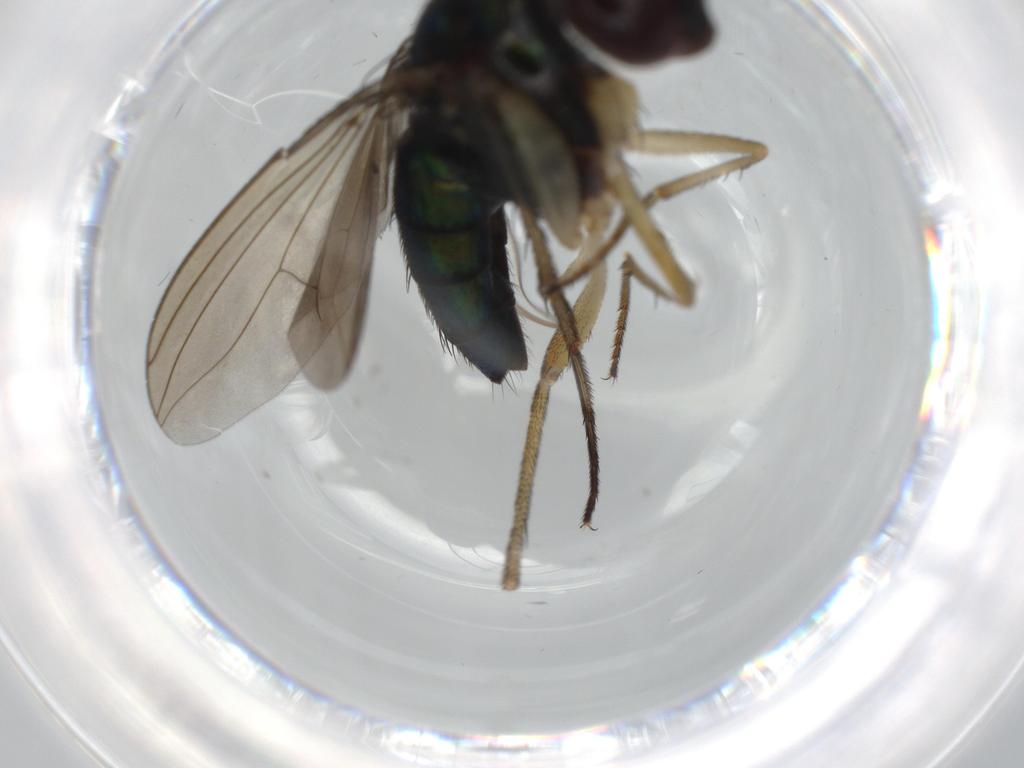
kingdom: Animalia
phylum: Arthropoda
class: Insecta
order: Diptera
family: Dolichopodidae
